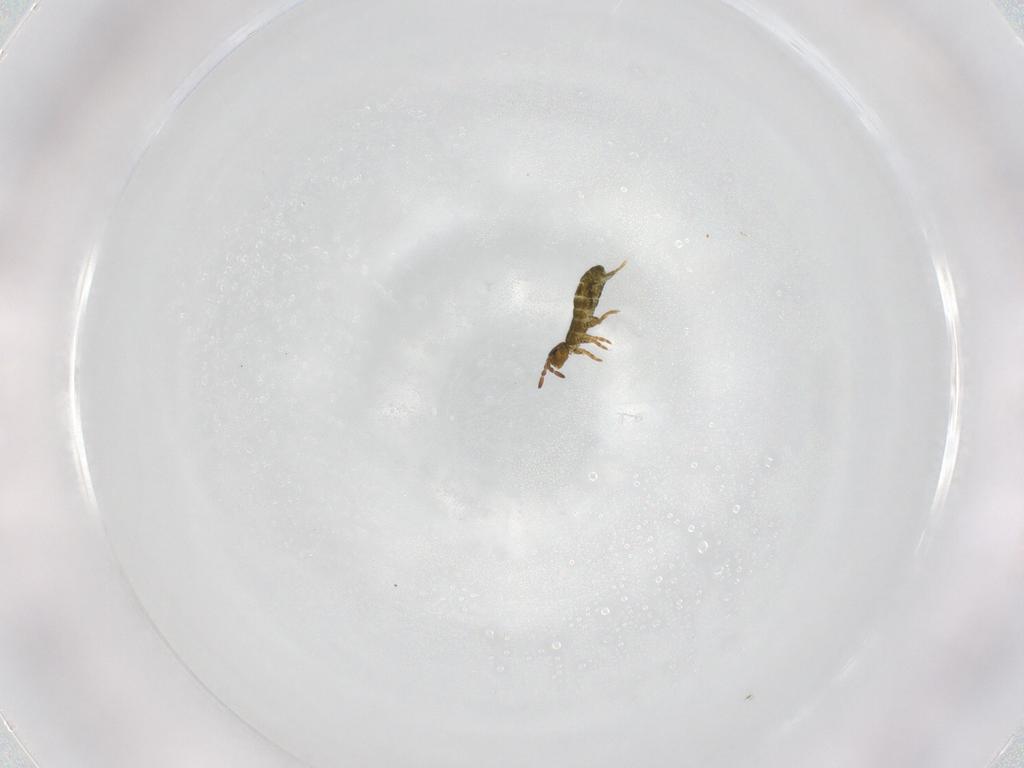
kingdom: Animalia
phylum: Arthropoda
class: Collembola
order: Entomobryomorpha
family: Isotomidae
